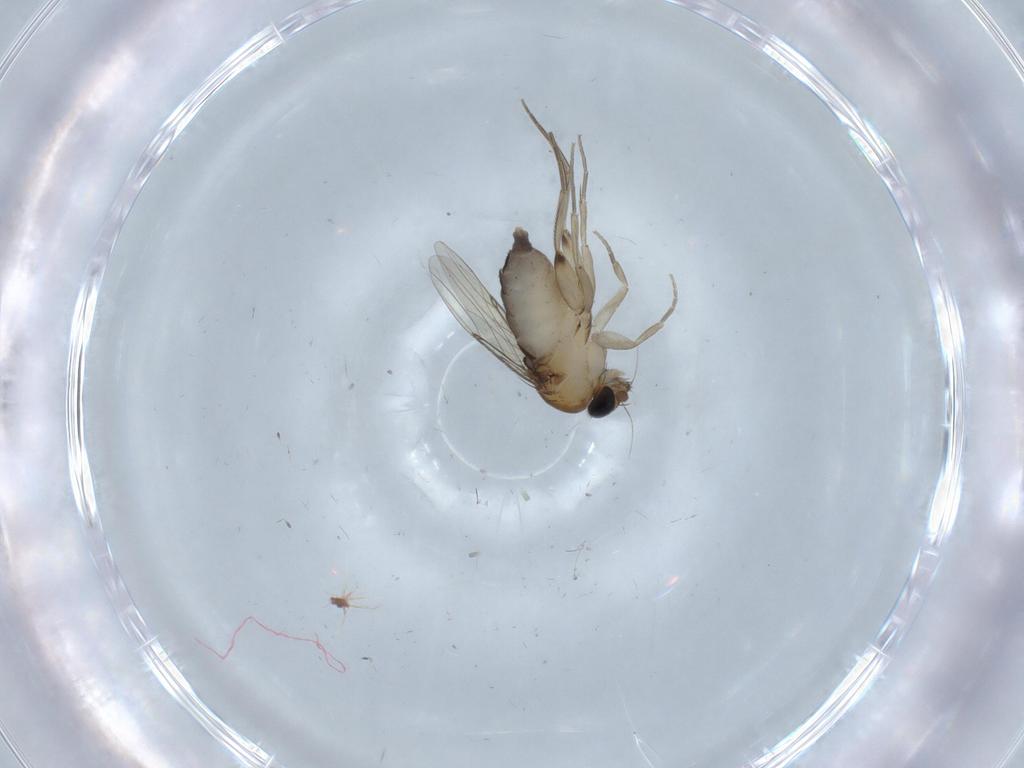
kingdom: Animalia
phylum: Arthropoda
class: Insecta
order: Diptera
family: Phoridae
